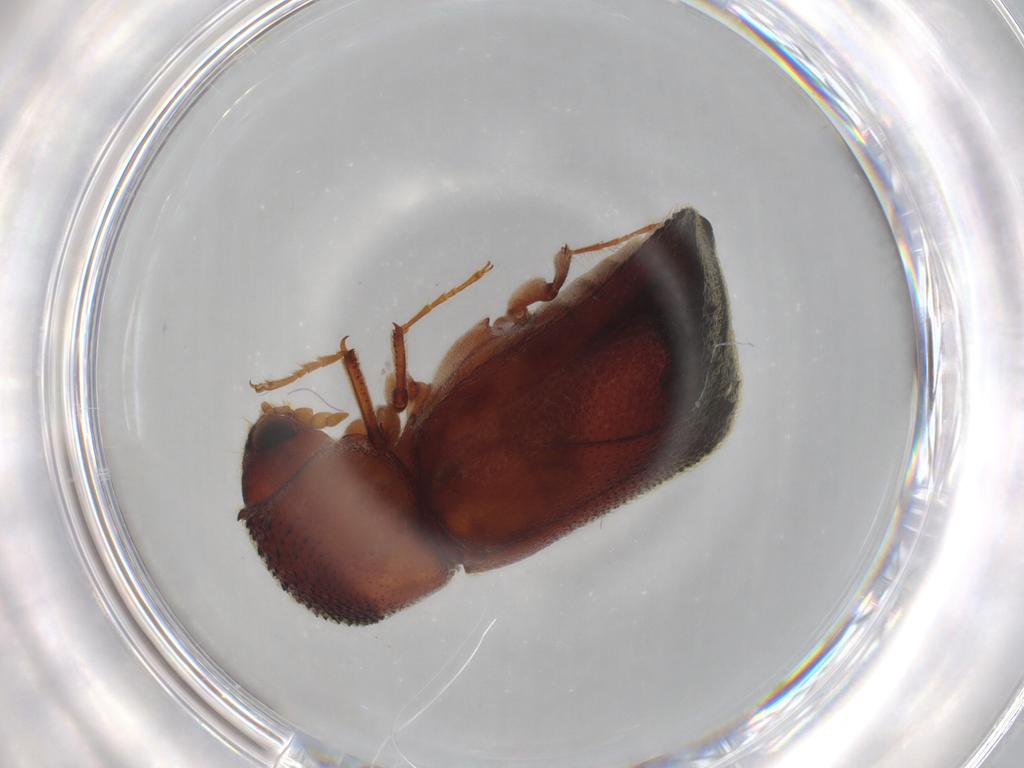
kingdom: Animalia
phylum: Arthropoda
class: Insecta
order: Coleoptera
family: Bostrichidae
